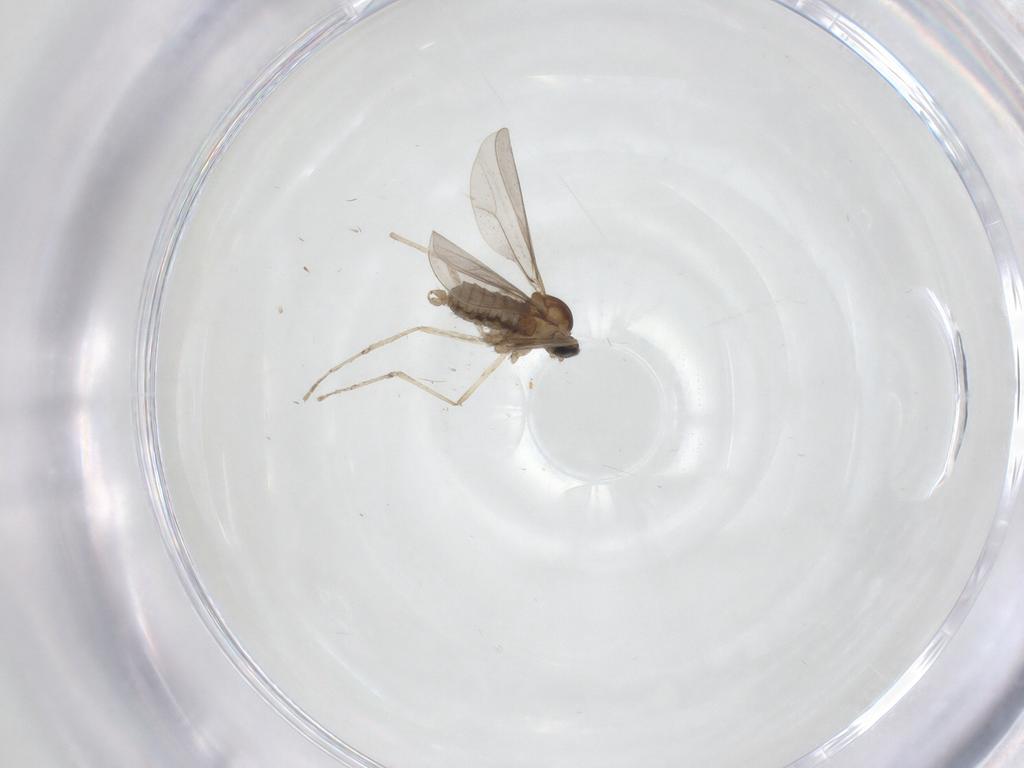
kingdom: Animalia
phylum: Arthropoda
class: Insecta
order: Diptera
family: Cecidomyiidae
